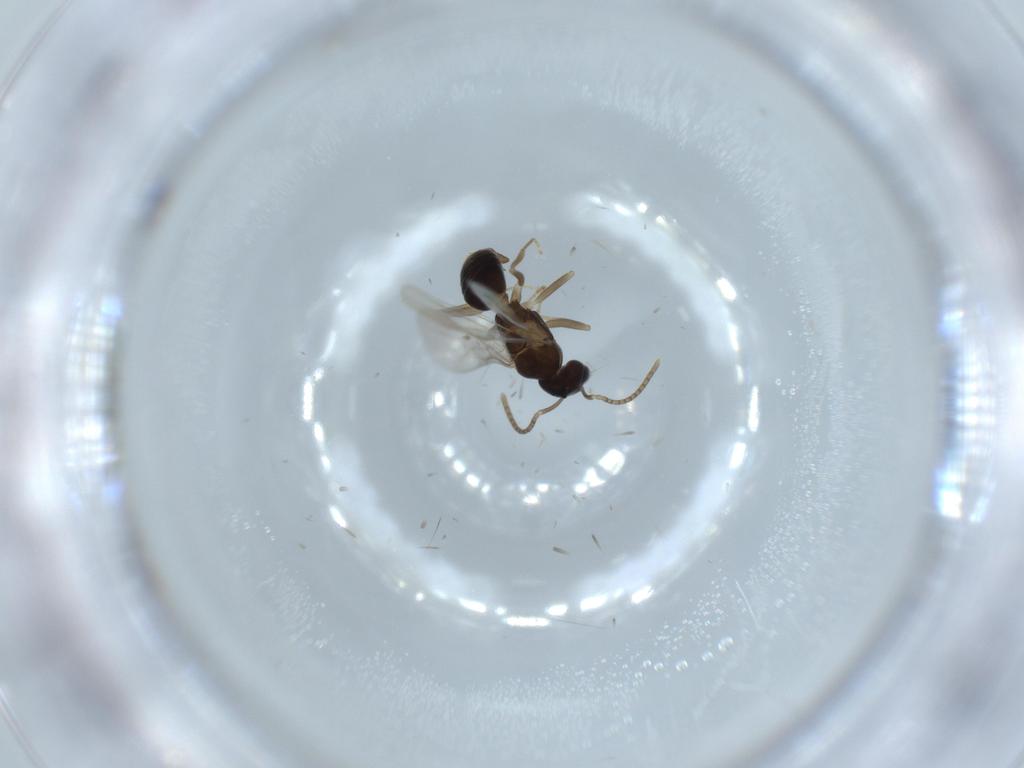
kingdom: Animalia
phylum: Arthropoda
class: Insecta
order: Hymenoptera
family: Formicidae
